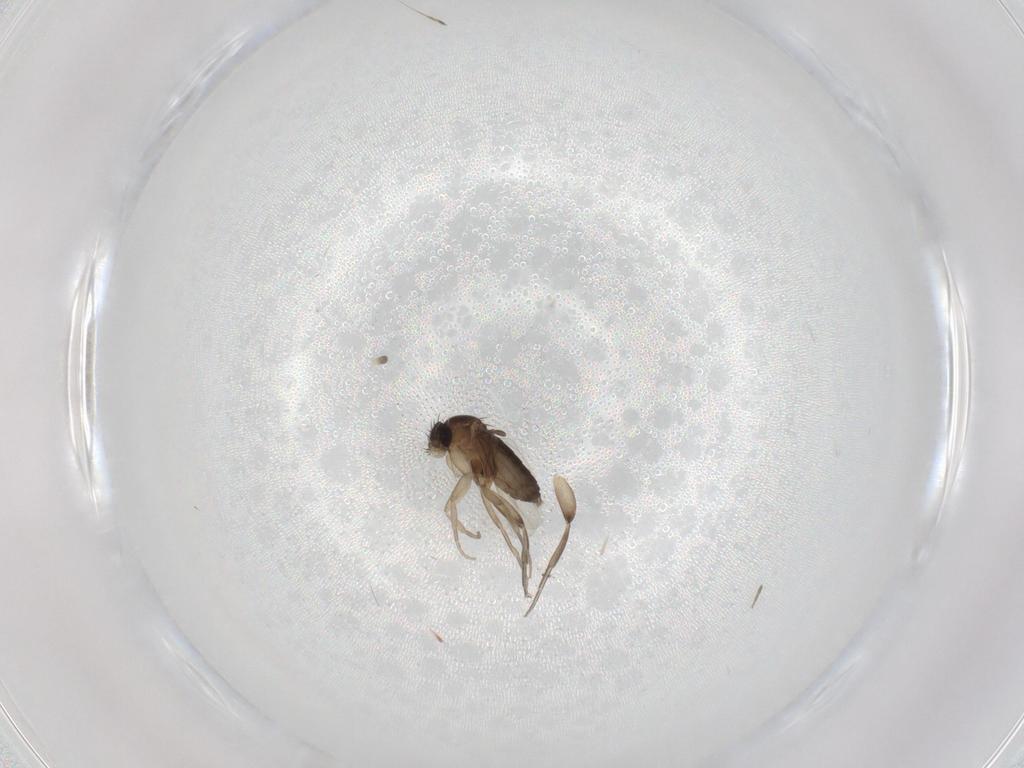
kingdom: Animalia
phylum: Arthropoda
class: Insecta
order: Diptera
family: Phoridae
